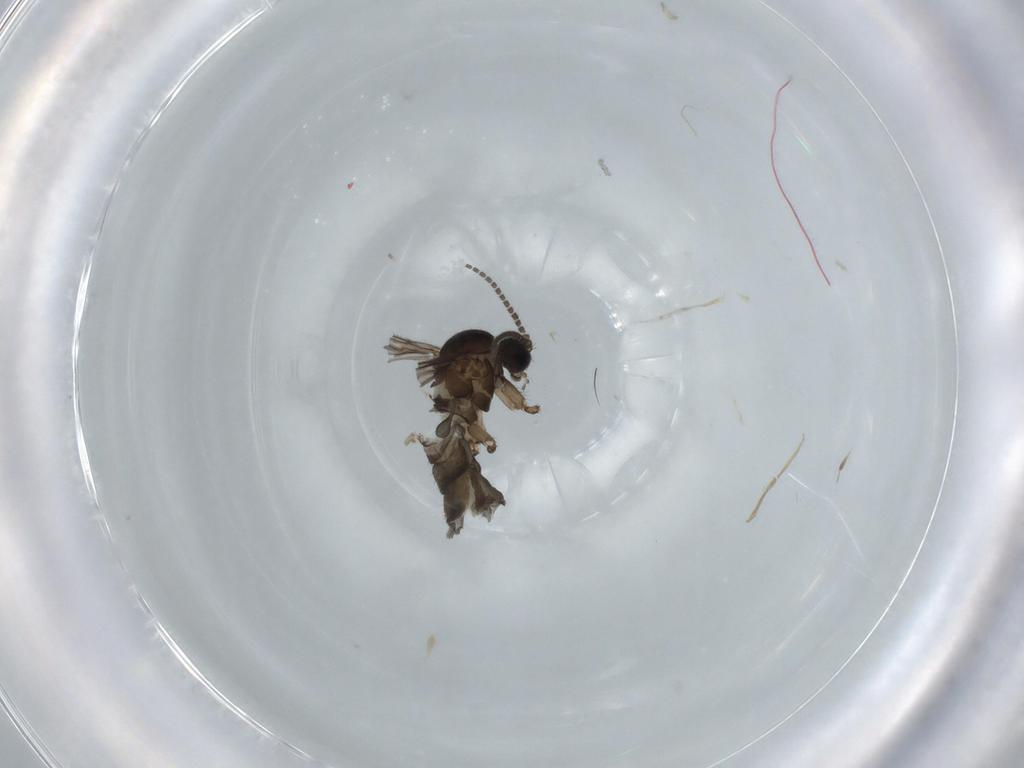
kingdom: Animalia
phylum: Arthropoda
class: Insecta
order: Diptera
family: Sciaridae
